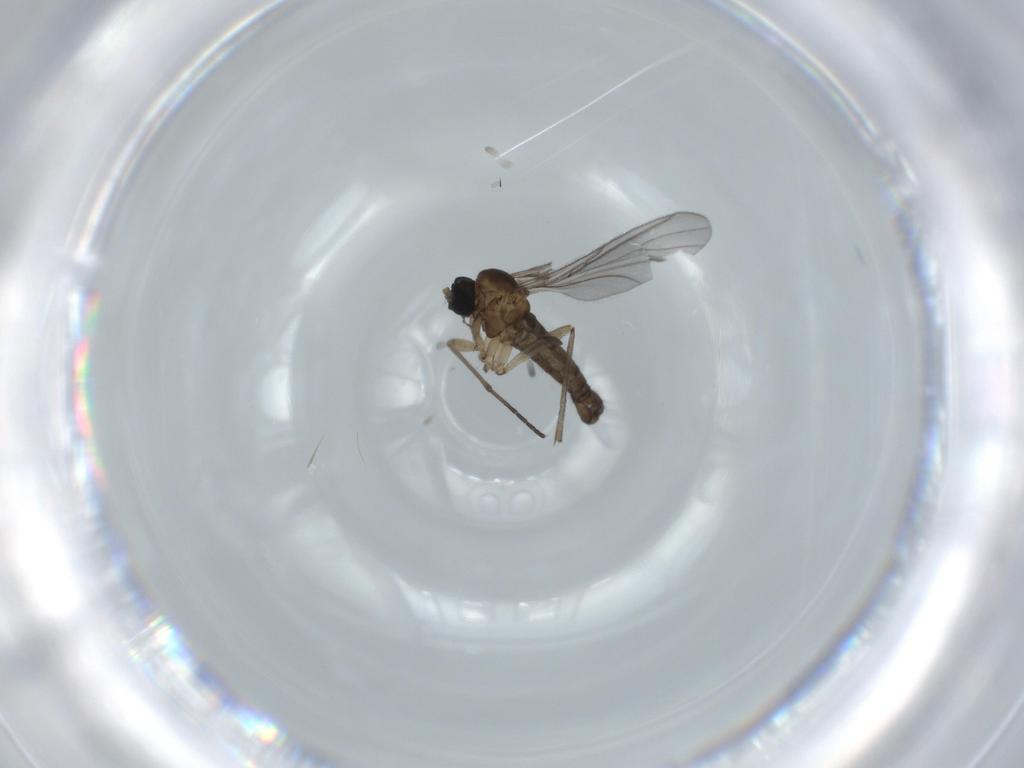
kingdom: Animalia
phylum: Arthropoda
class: Insecta
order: Diptera
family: Sciaridae
